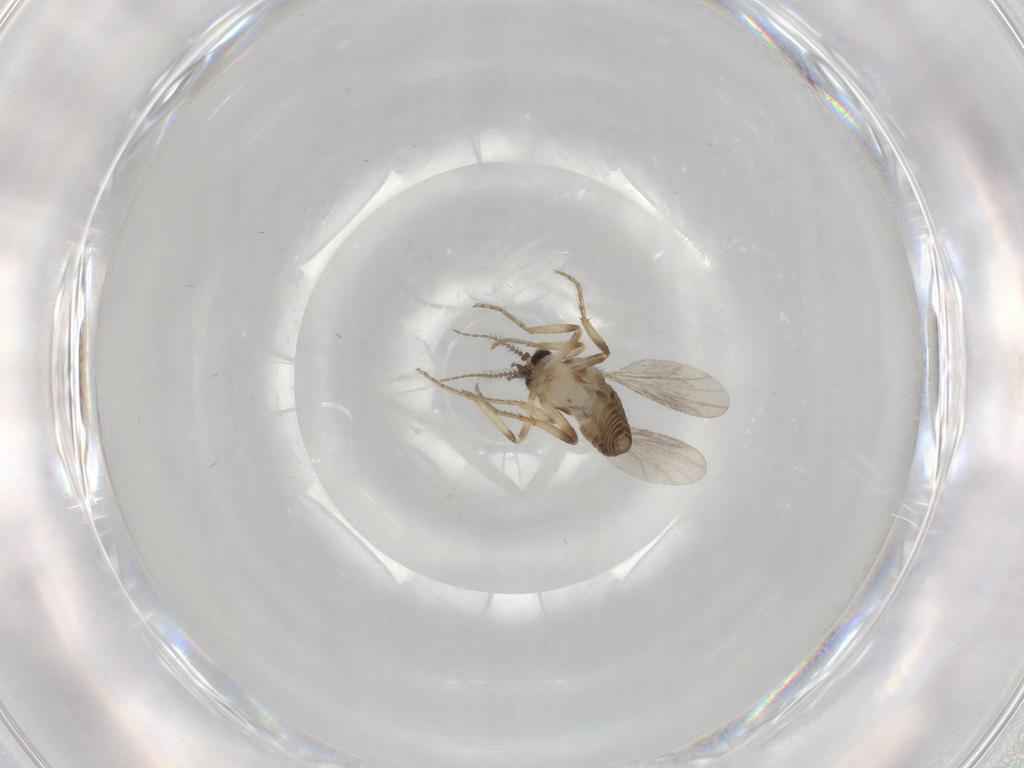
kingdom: Animalia
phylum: Arthropoda
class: Insecta
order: Diptera
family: Ceratopogonidae
